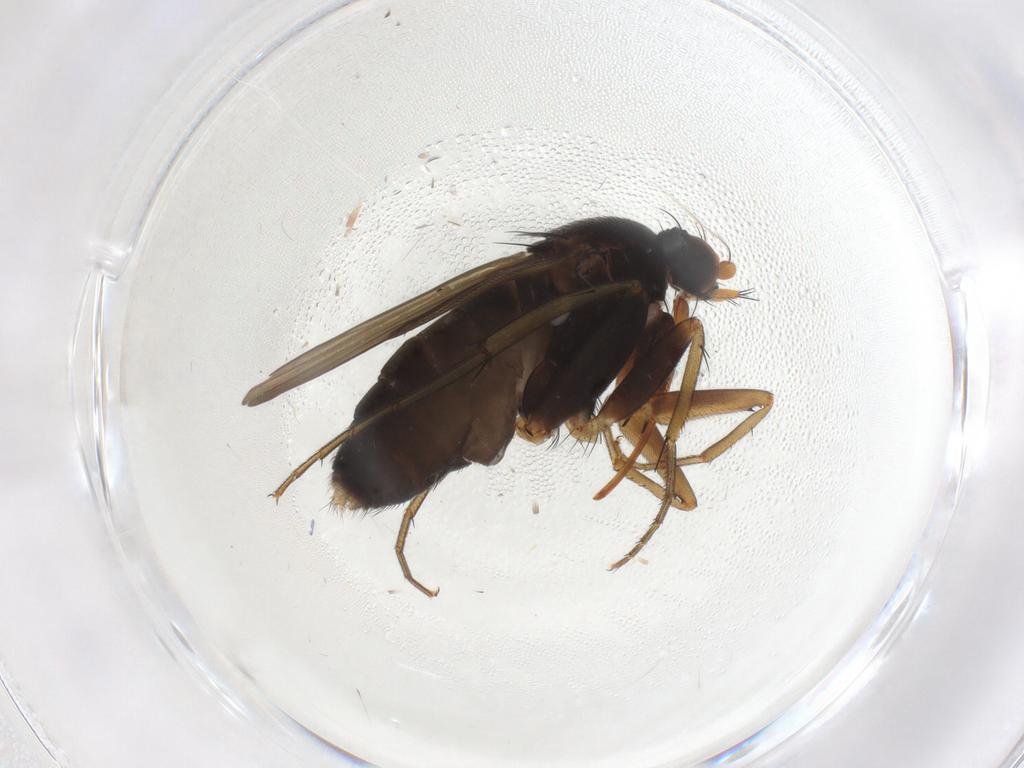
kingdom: Animalia
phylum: Arthropoda
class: Insecta
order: Diptera
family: Phoridae
